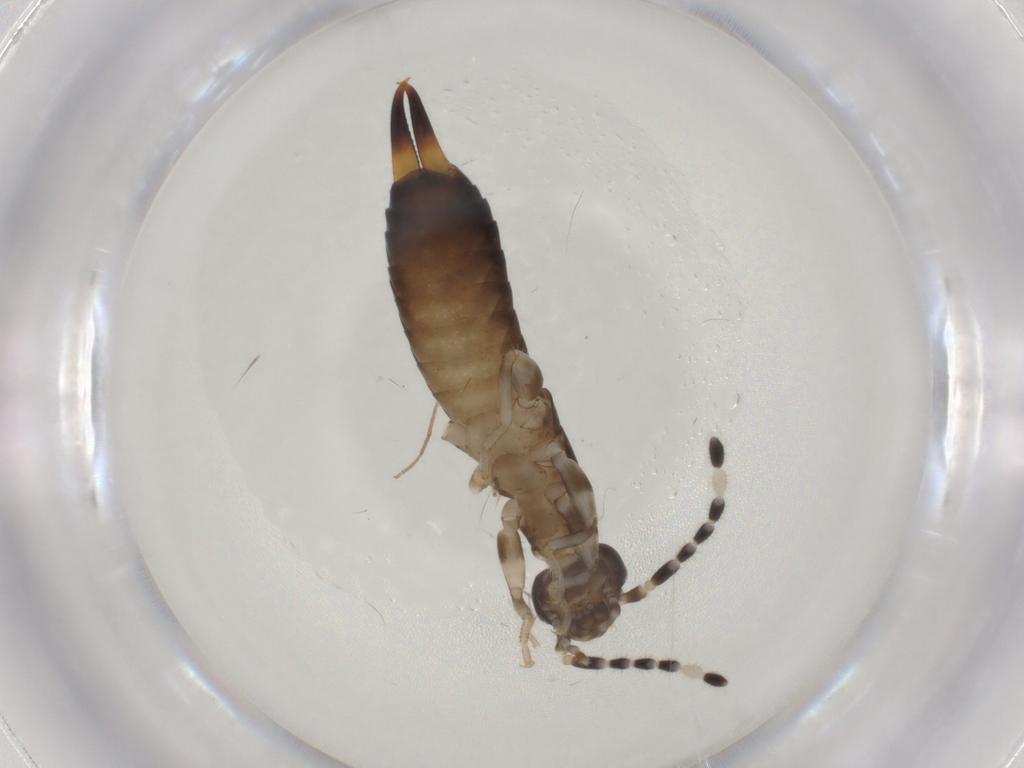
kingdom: Animalia
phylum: Arthropoda
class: Insecta
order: Dermaptera
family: Anisolabididae
